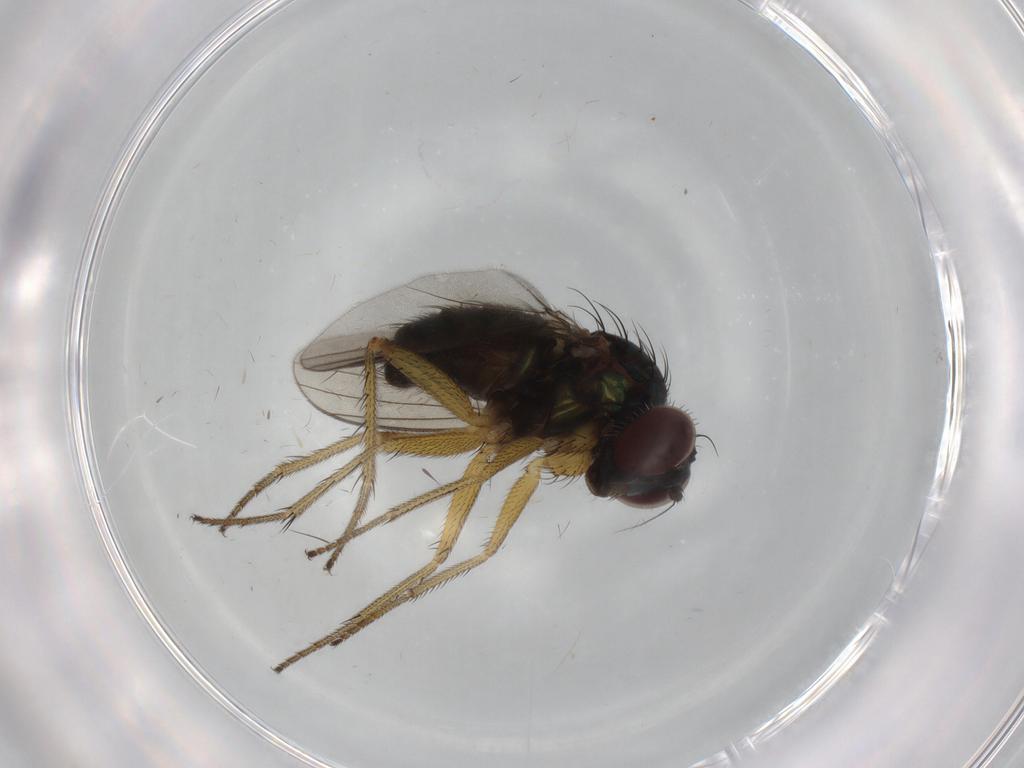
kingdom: Animalia
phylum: Arthropoda
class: Insecta
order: Diptera
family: Dolichopodidae
